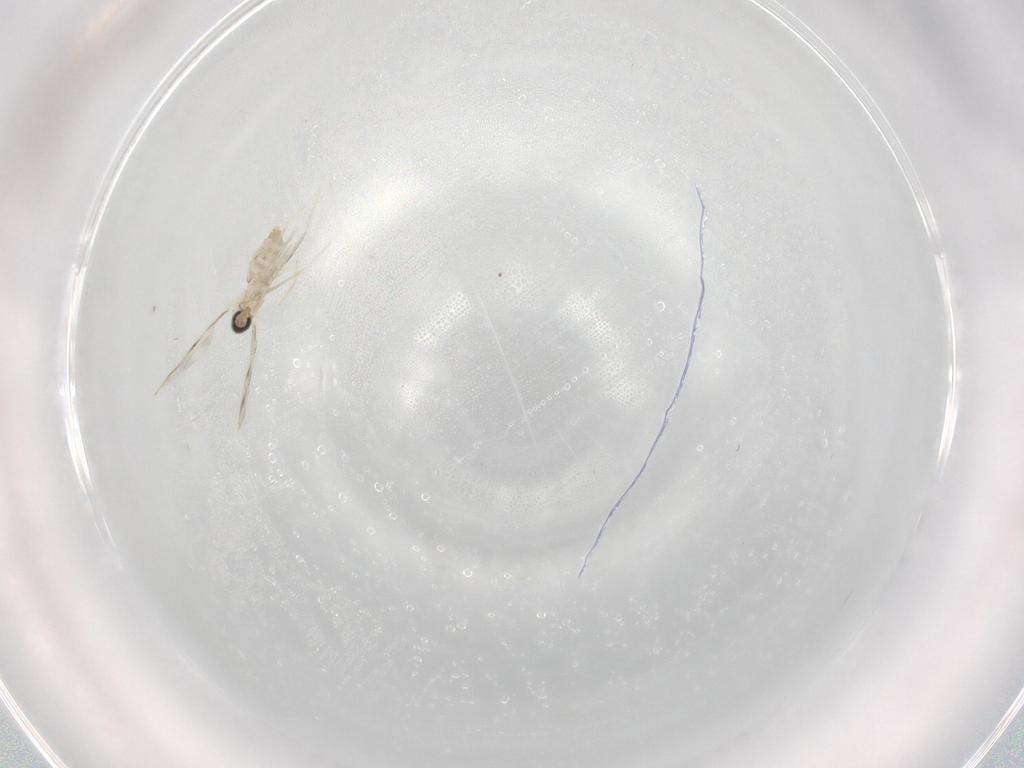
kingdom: Animalia
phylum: Arthropoda
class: Insecta
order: Diptera
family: Cecidomyiidae
